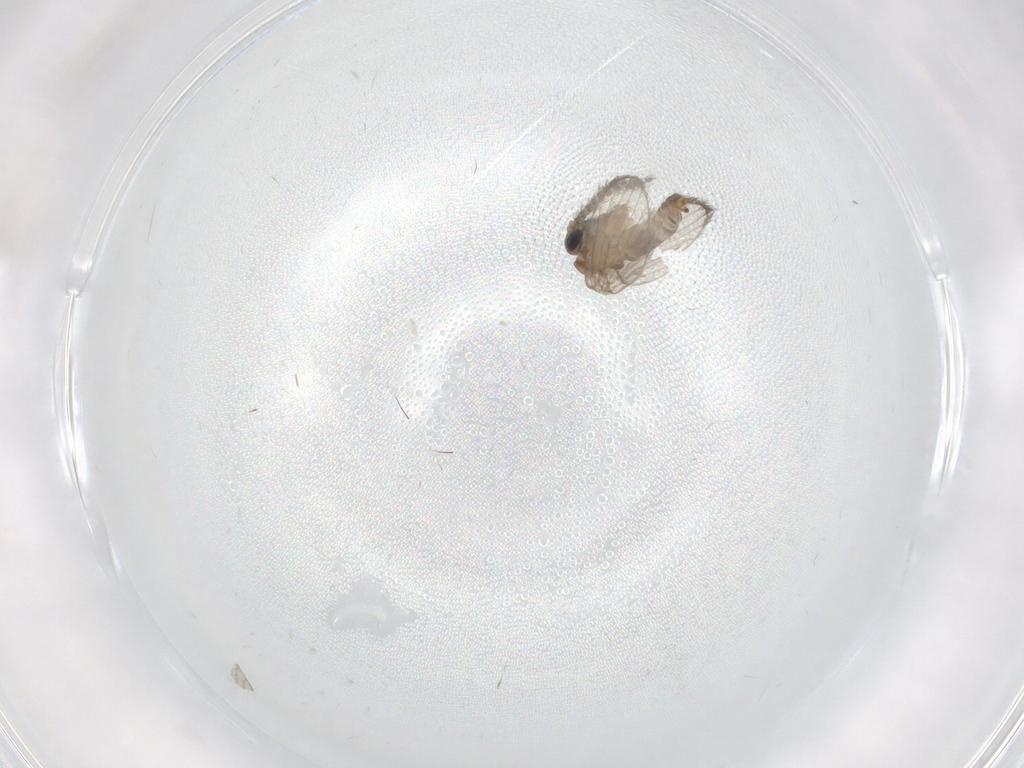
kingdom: Animalia
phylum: Arthropoda
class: Insecta
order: Diptera
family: Psychodidae
